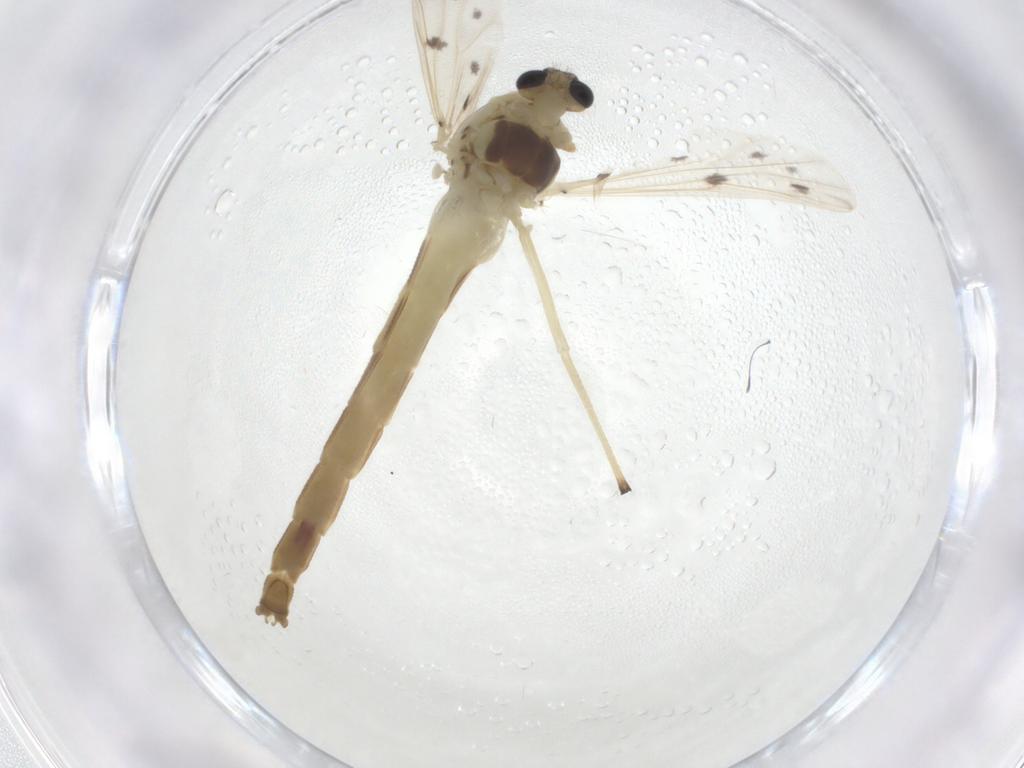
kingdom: Animalia
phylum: Arthropoda
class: Insecta
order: Diptera
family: Chironomidae
